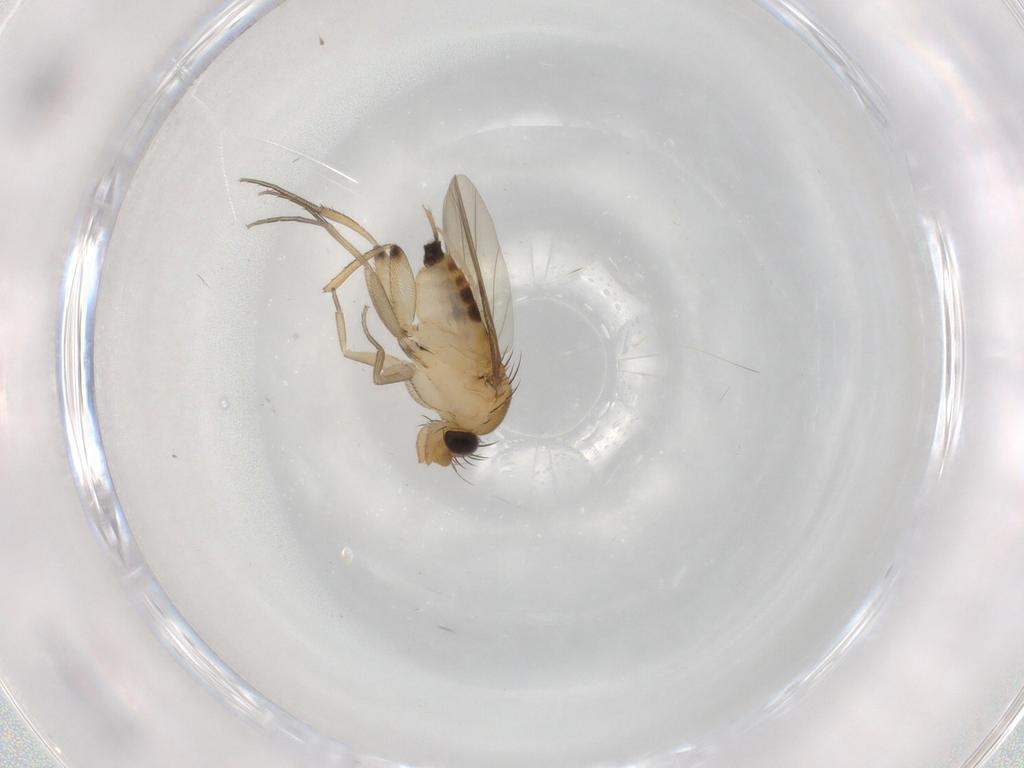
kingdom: Animalia
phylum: Arthropoda
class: Insecta
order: Diptera
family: Phoridae
